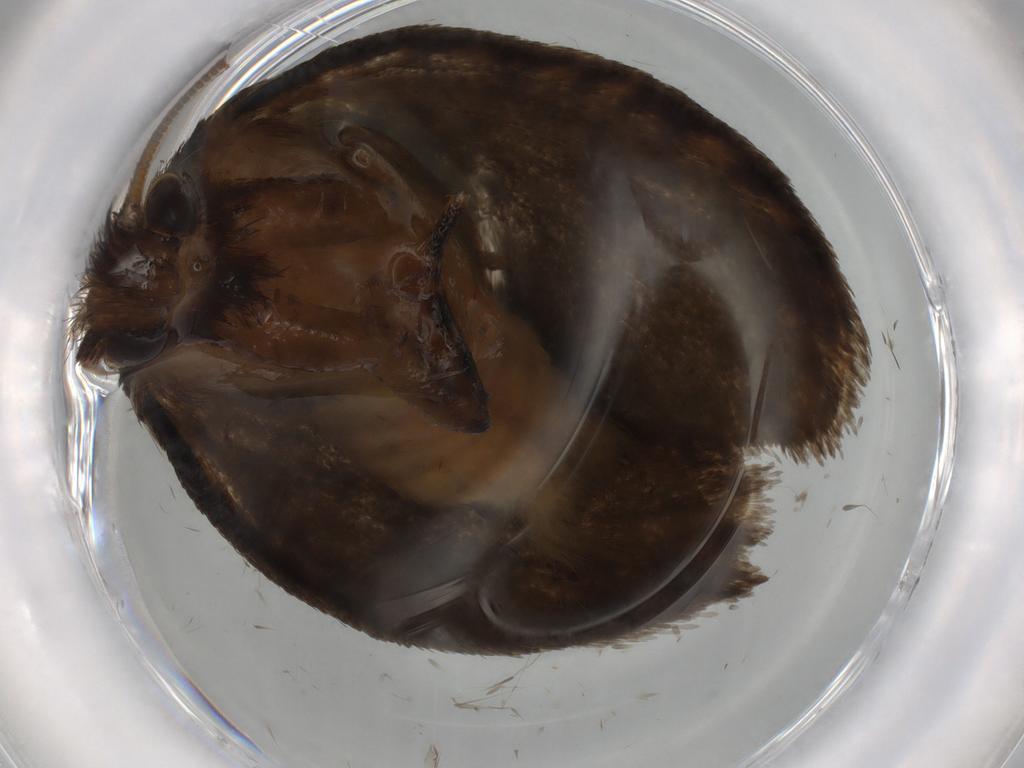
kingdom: Animalia
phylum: Arthropoda
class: Insecta
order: Lepidoptera
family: Tineidae
